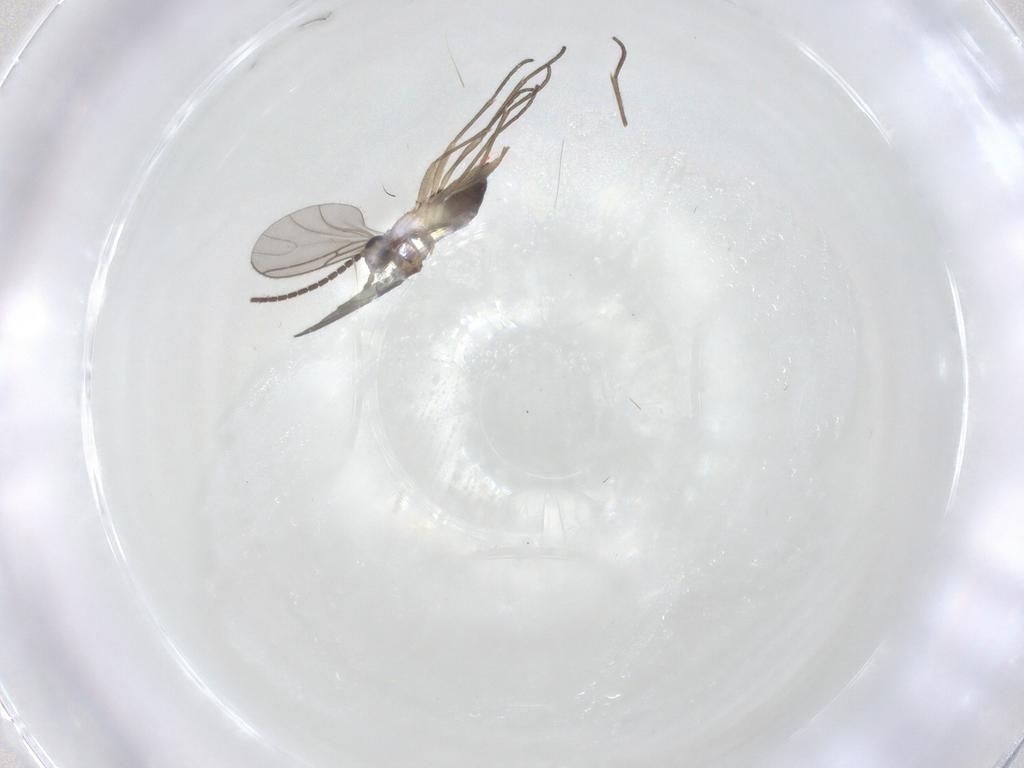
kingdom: Animalia
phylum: Arthropoda
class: Insecta
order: Diptera
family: Sciaridae
